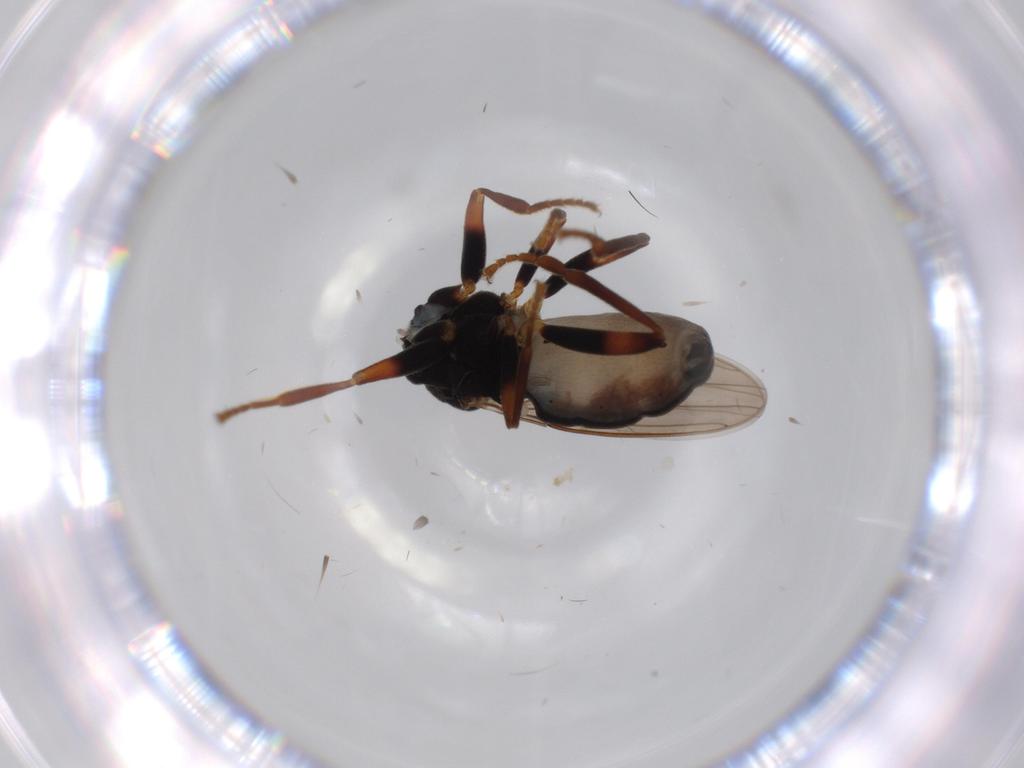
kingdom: Animalia
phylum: Arthropoda
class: Insecta
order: Diptera
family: Sphaeroceridae
